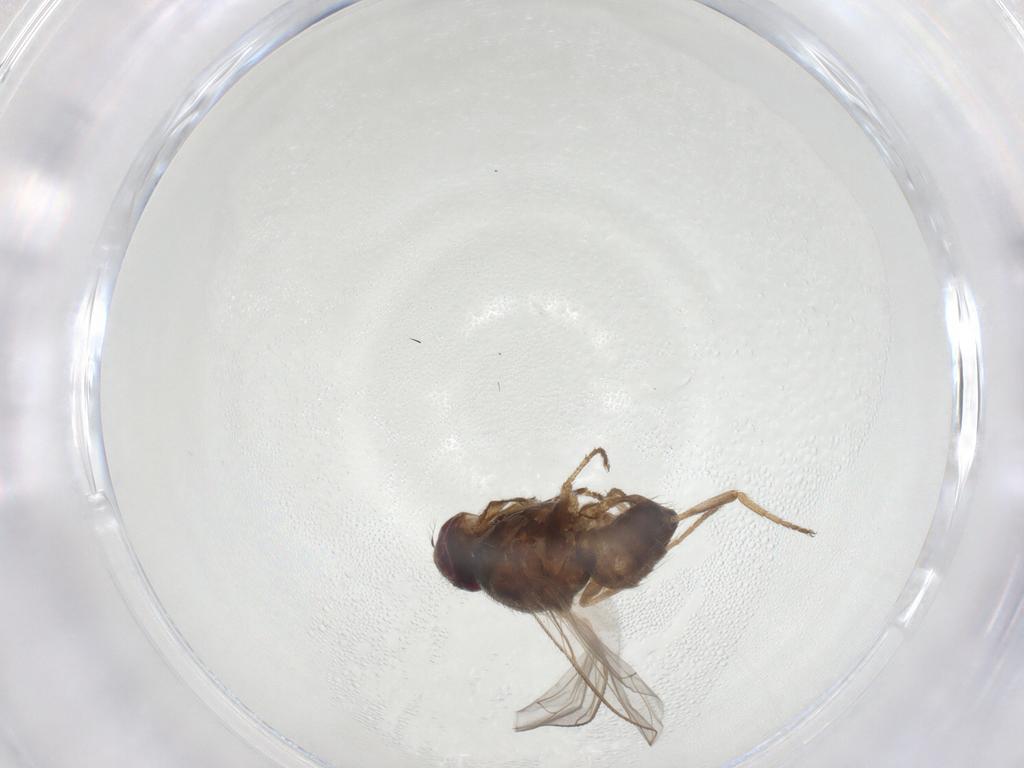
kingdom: Animalia
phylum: Arthropoda
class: Insecta
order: Diptera
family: Muscidae
